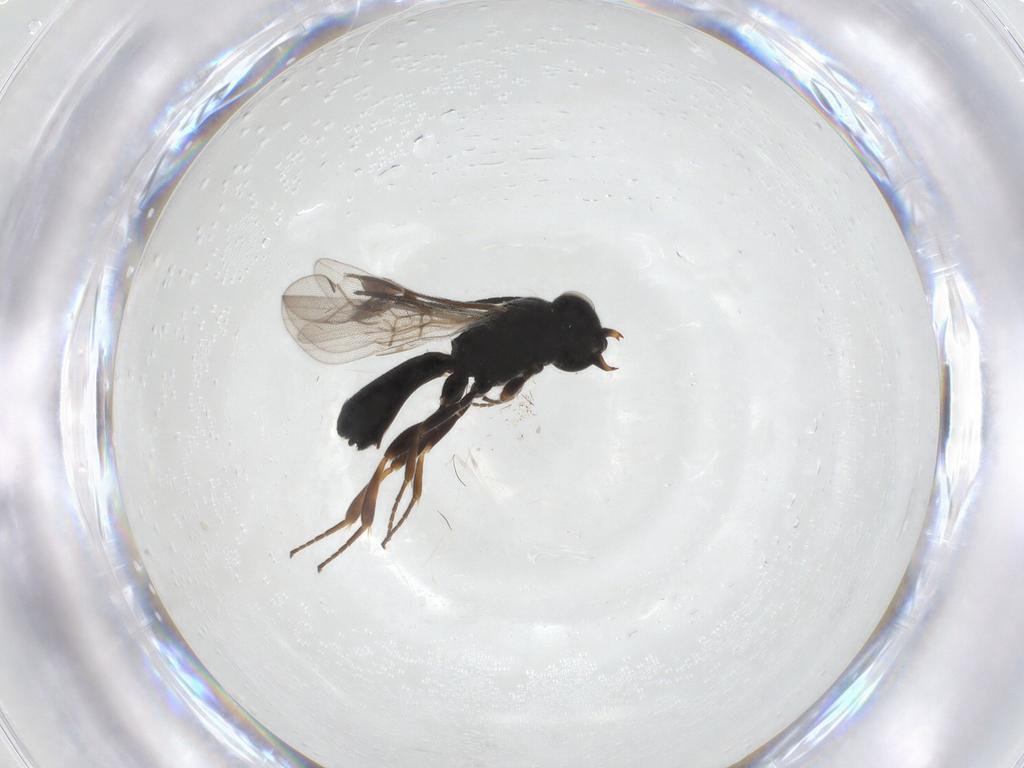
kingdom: Animalia
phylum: Arthropoda
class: Insecta
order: Hymenoptera
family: Braconidae
